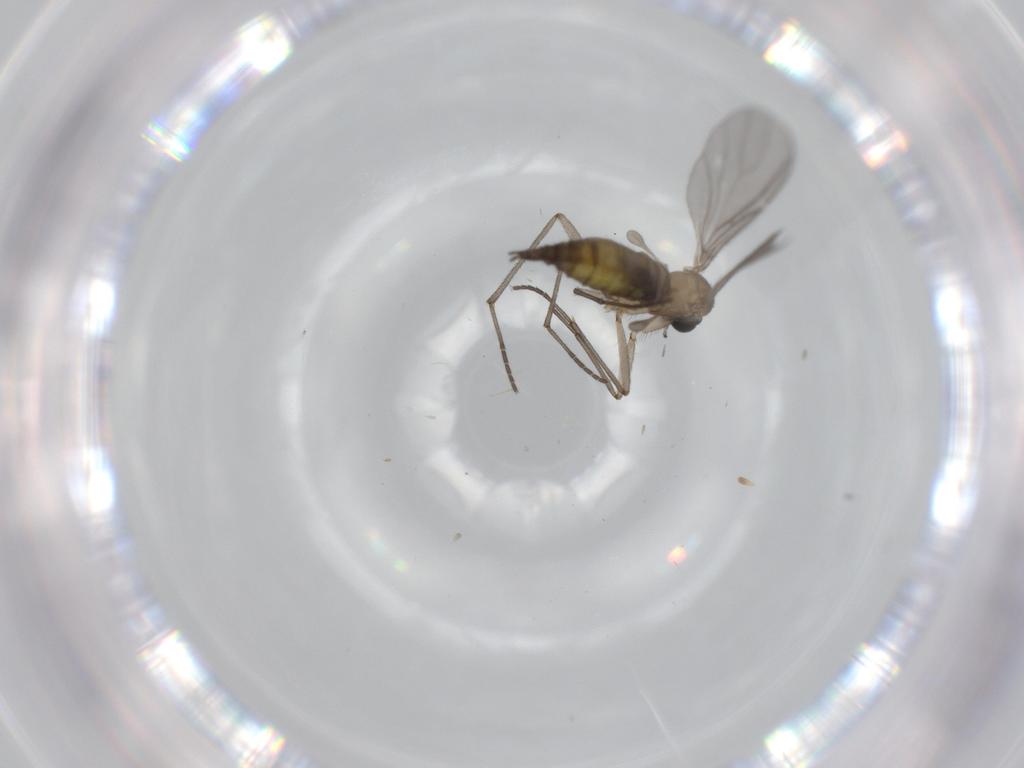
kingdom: Animalia
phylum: Arthropoda
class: Insecta
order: Diptera
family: Sciaridae
